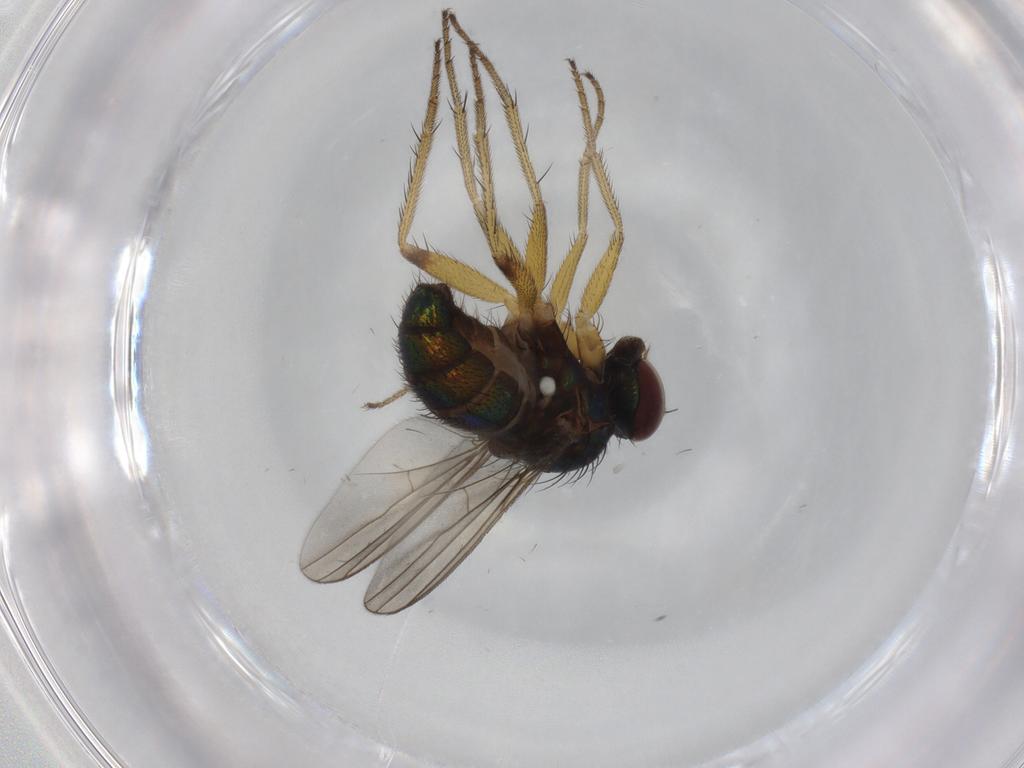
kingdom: Animalia
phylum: Arthropoda
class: Insecta
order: Diptera
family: Dolichopodidae
